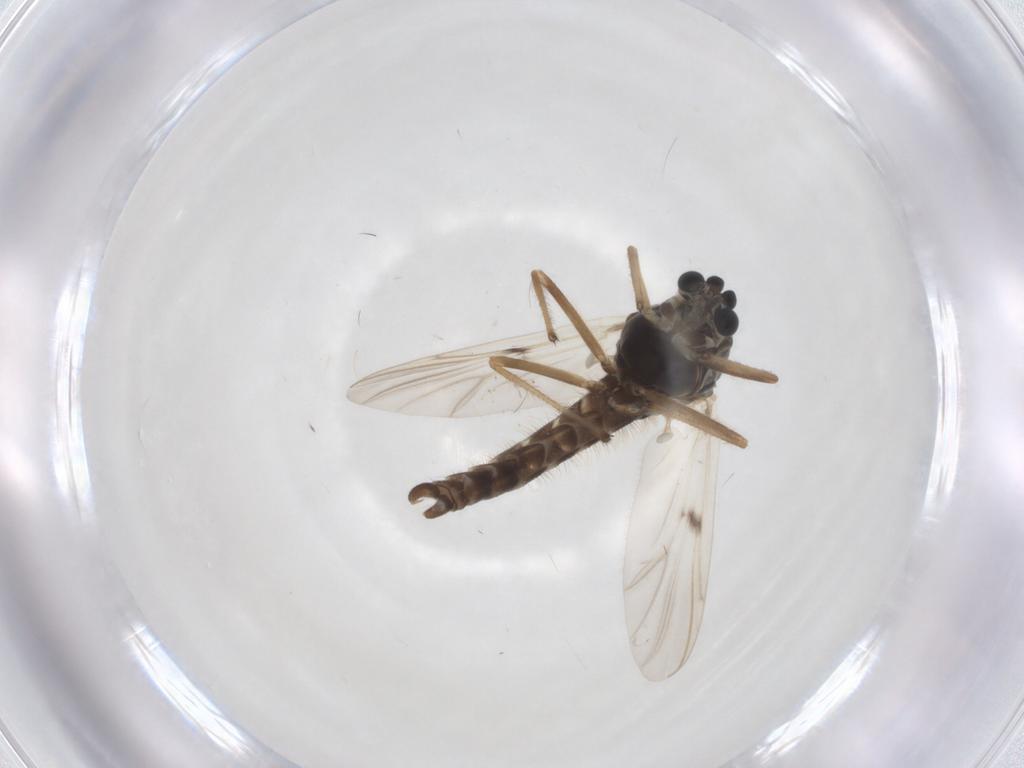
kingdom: Animalia
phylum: Arthropoda
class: Insecta
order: Diptera
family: Chironomidae
